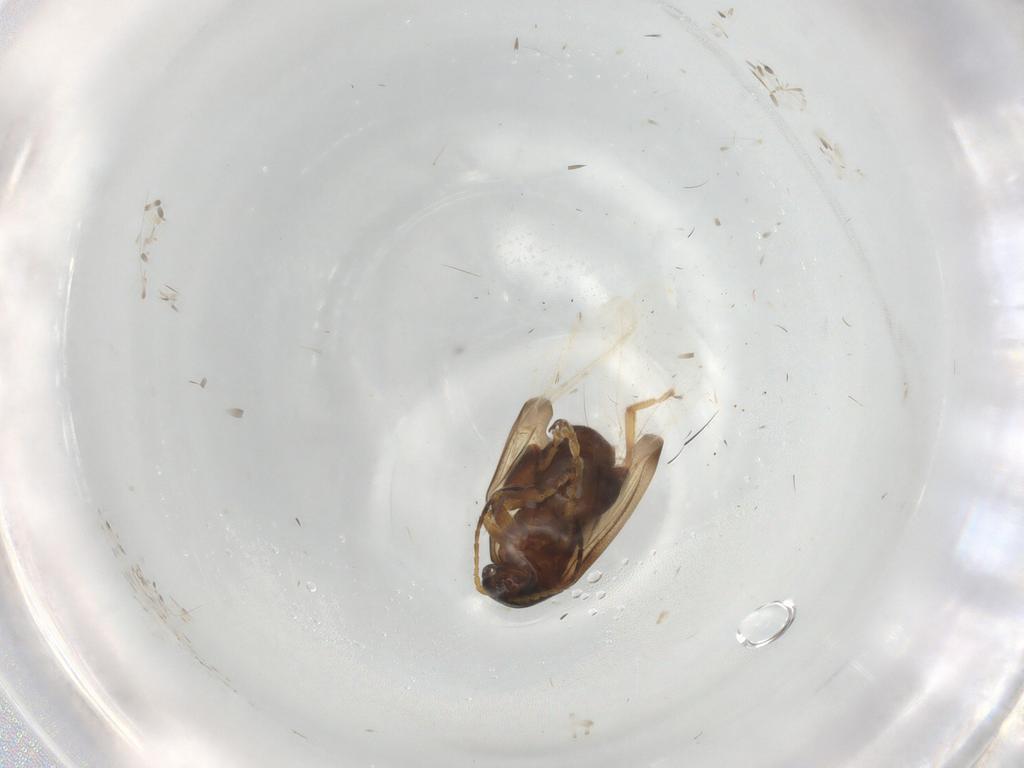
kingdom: Animalia
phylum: Arthropoda
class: Insecta
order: Coleoptera
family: Chrysomelidae
